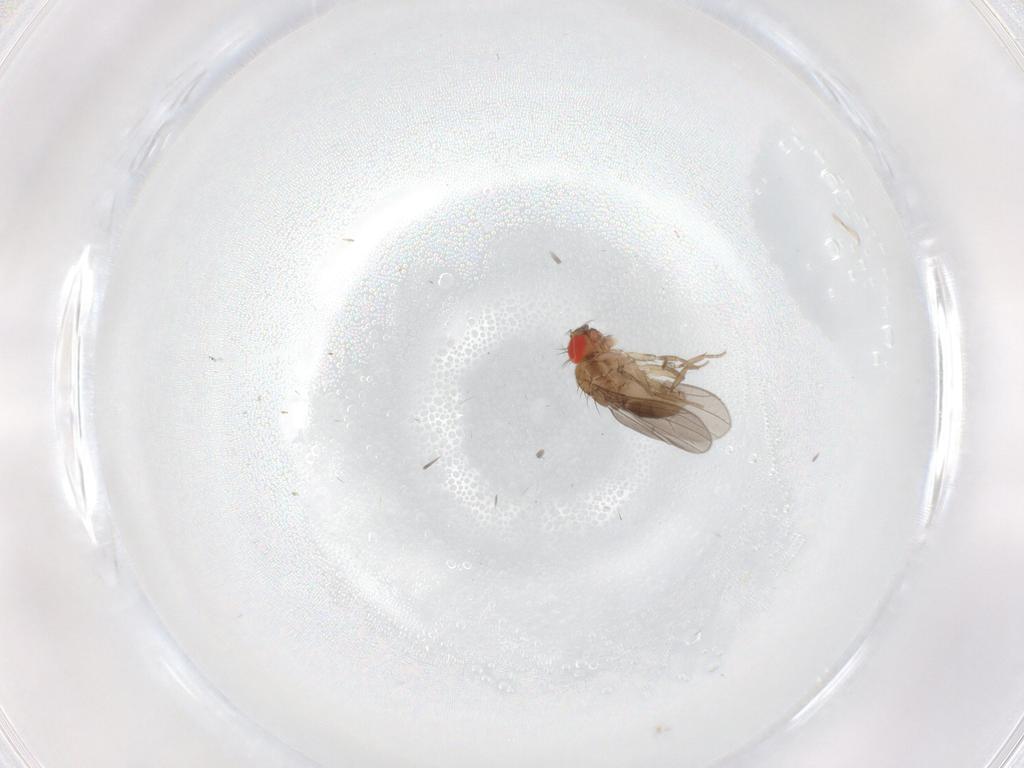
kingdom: Animalia
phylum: Arthropoda
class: Insecta
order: Diptera
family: Drosophilidae
